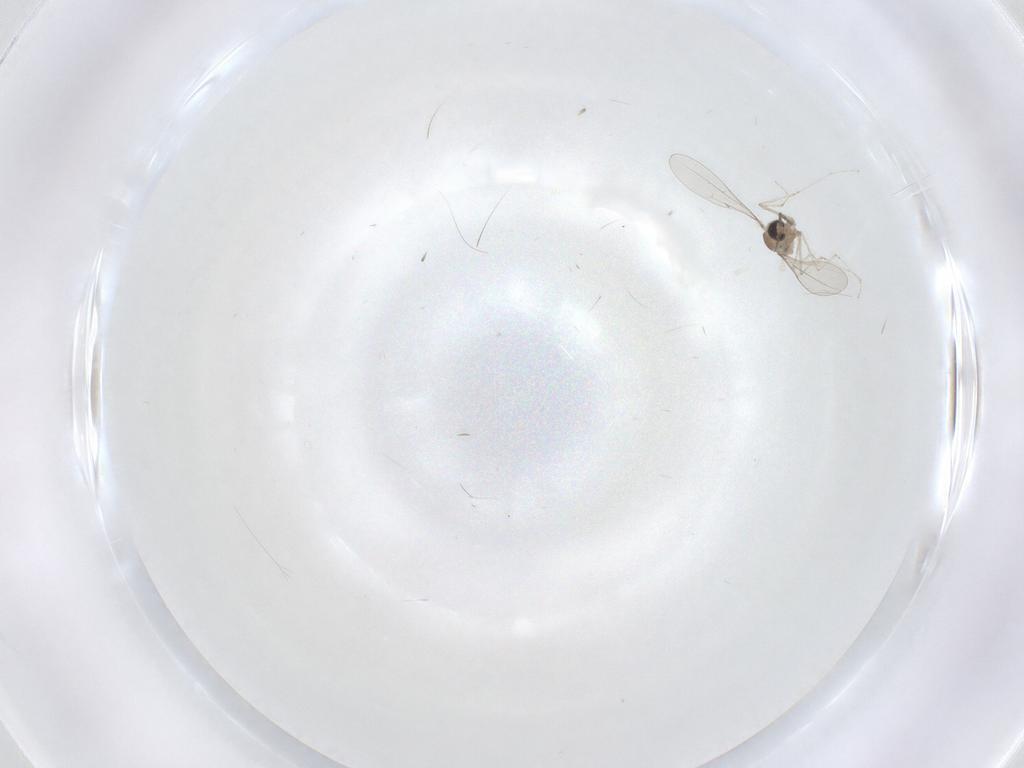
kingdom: Animalia
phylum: Arthropoda
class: Insecta
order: Diptera
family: Cecidomyiidae
